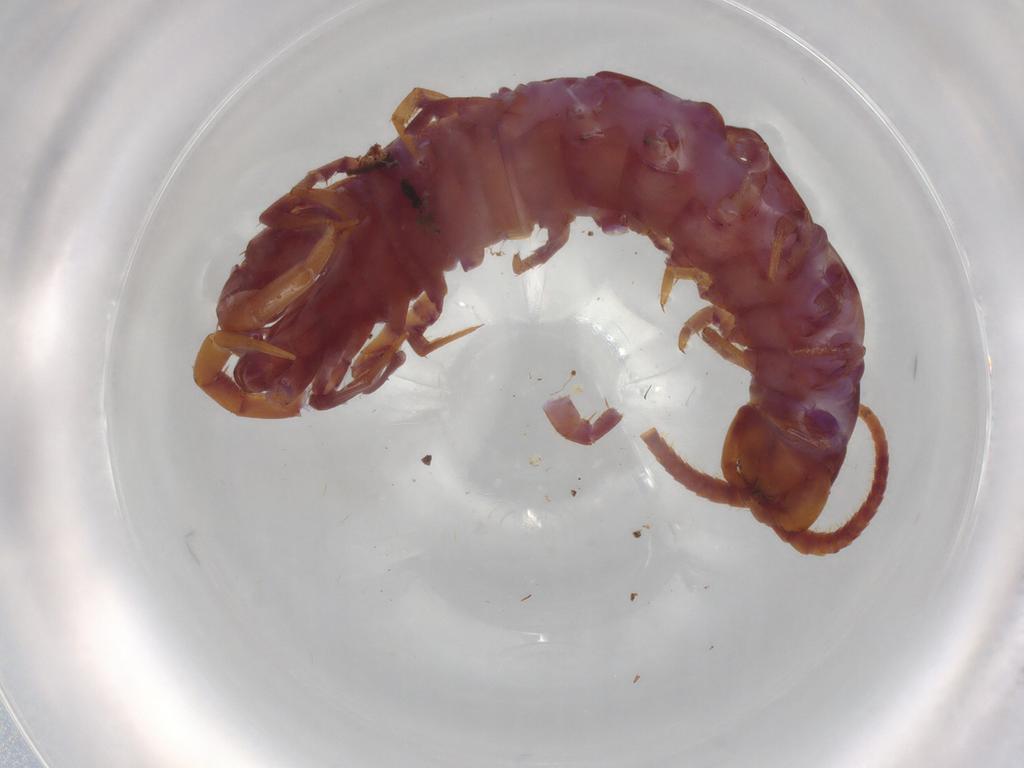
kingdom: Animalia
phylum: Arthropoda
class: Chilopoda
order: Lithobiomorpha
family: Lithobiidae
